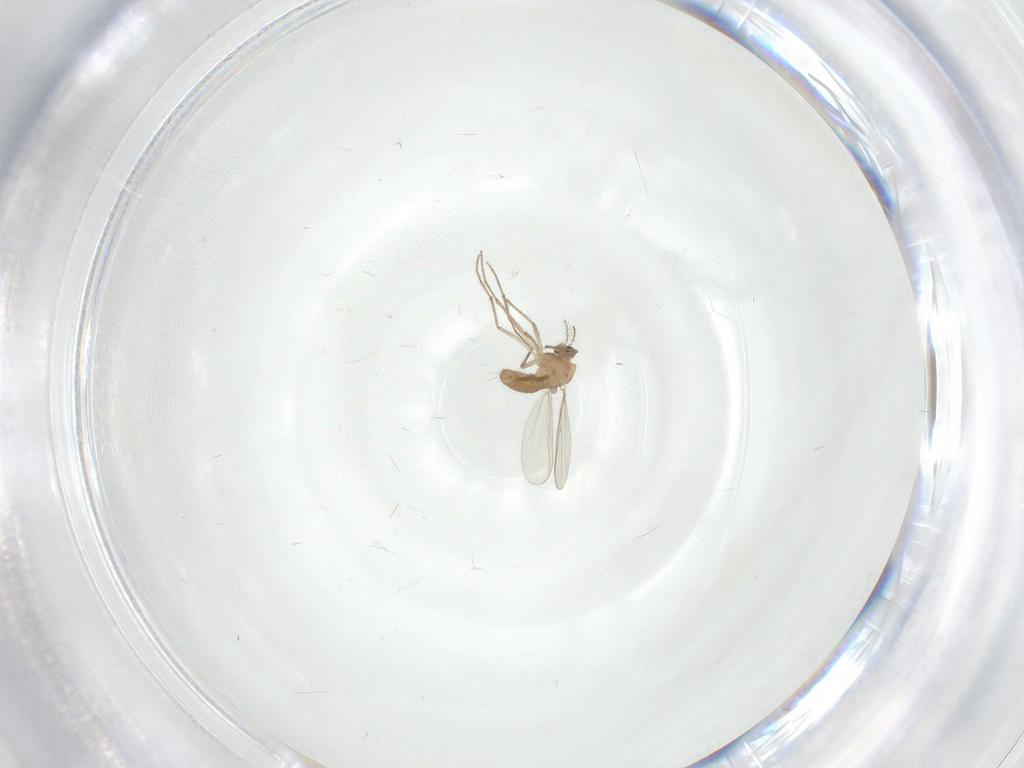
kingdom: Animalia
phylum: Arthropoda
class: Insecta
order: Diptera
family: Chironomidae
